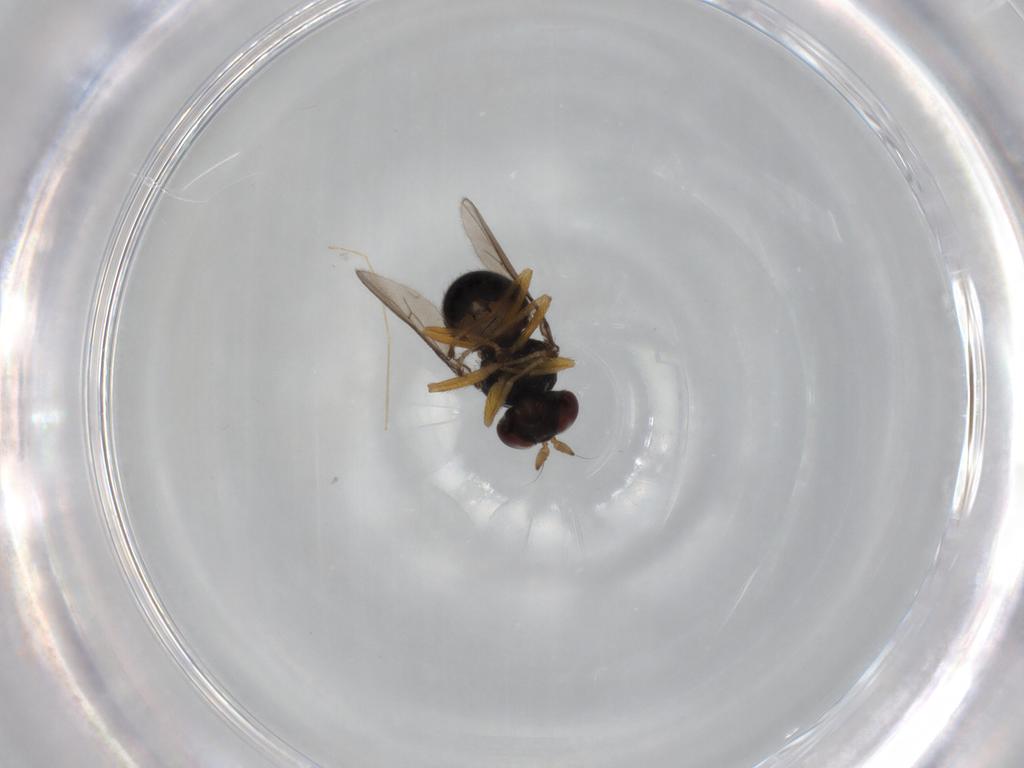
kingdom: Animalia
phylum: Arthropoda
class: Insecta
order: Diptera
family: Ephydridae
